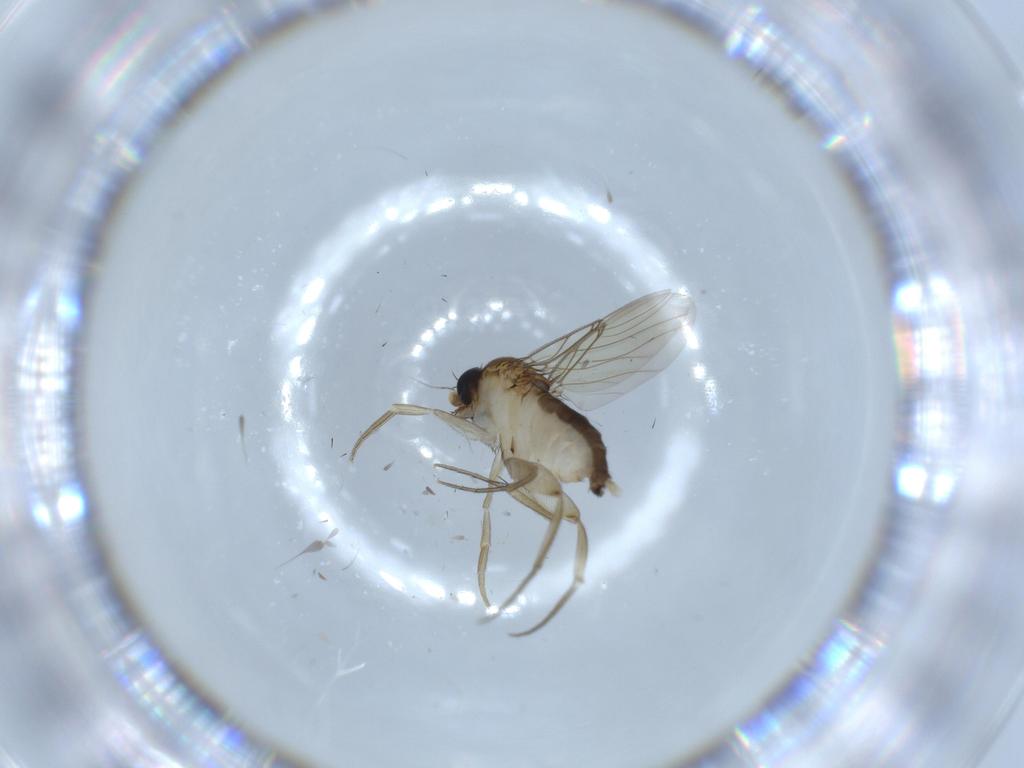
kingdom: Animalia
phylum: Arthropoda
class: Insecta
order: Diptera
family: Phoridae
